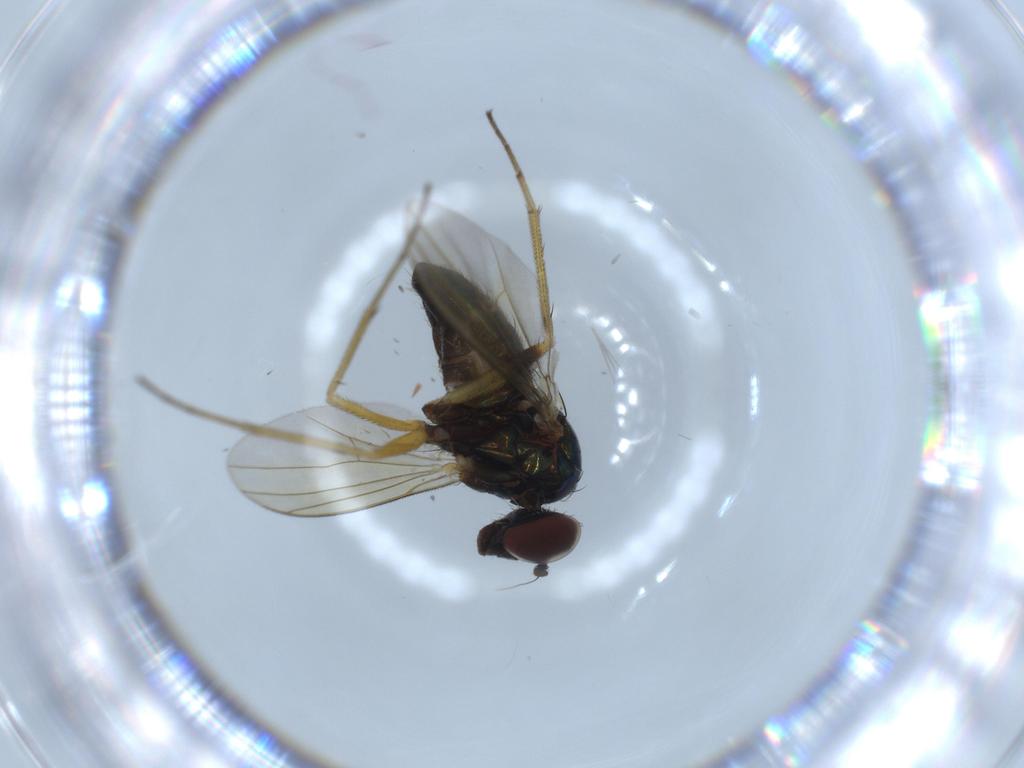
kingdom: Animalia
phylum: Arthropoda
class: Insecta
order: Diptera
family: Dolichopodidae
